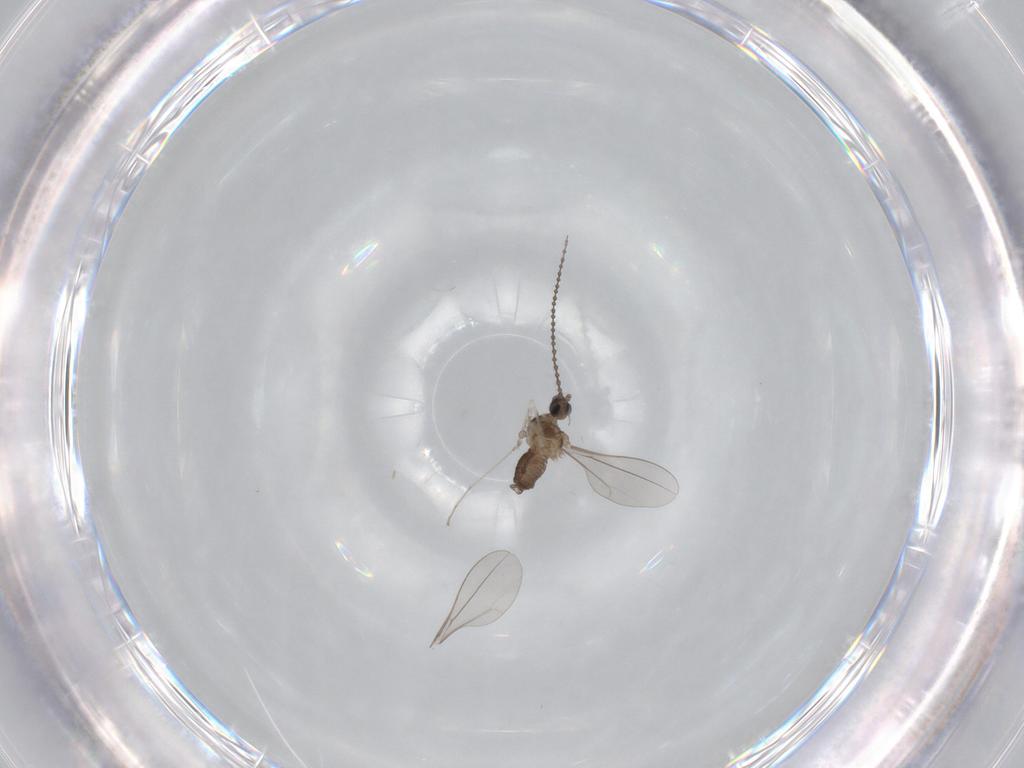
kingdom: Animalia
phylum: Arthropoda
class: Insecta
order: Diptera
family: Cecidomyiidae
